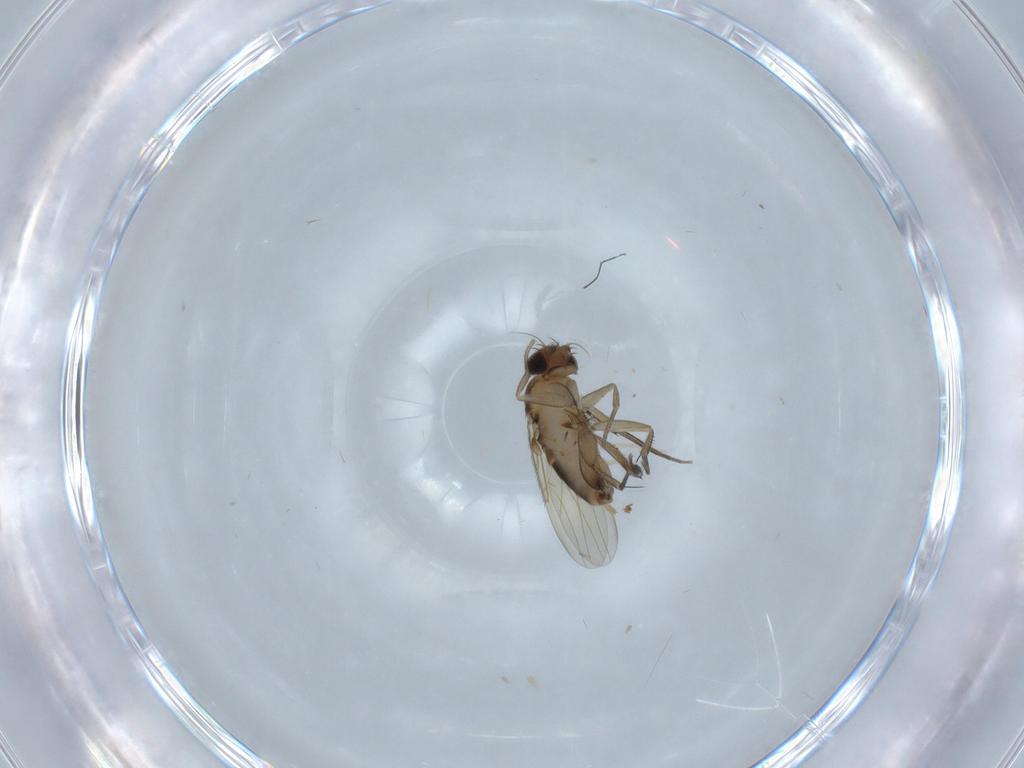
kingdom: Animalia
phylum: Arthropoda
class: Insecta
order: Diptera
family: Phoridae
